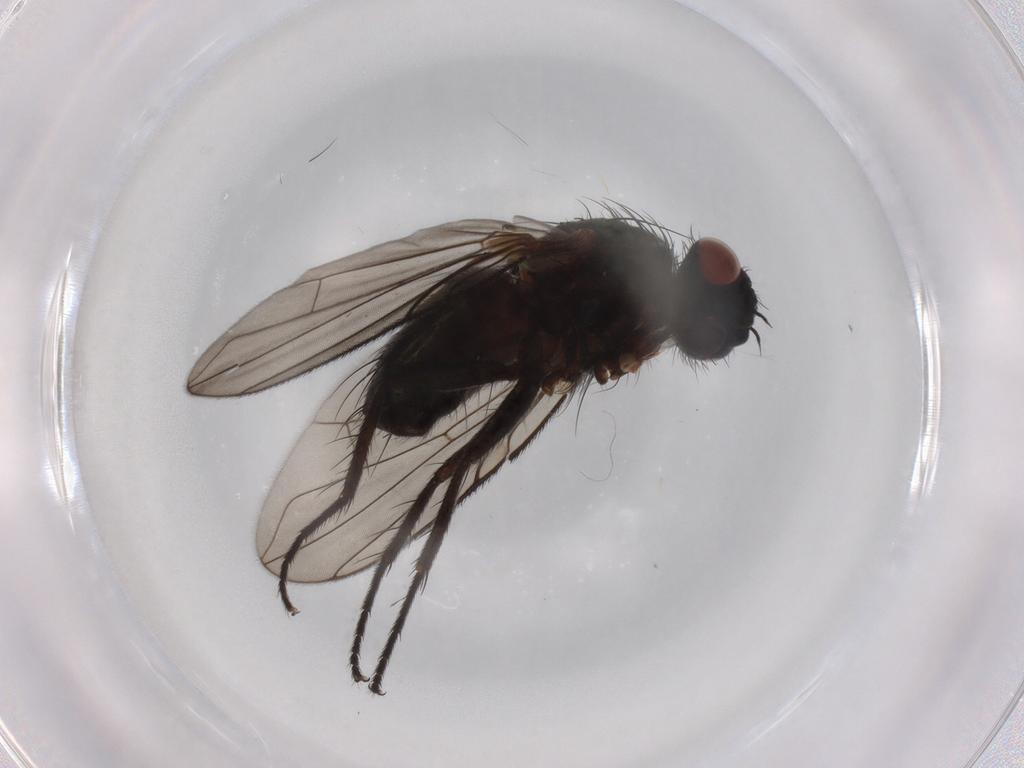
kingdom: Animalia
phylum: Arthropoda
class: Insecta
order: Diptera
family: Tachinidae
